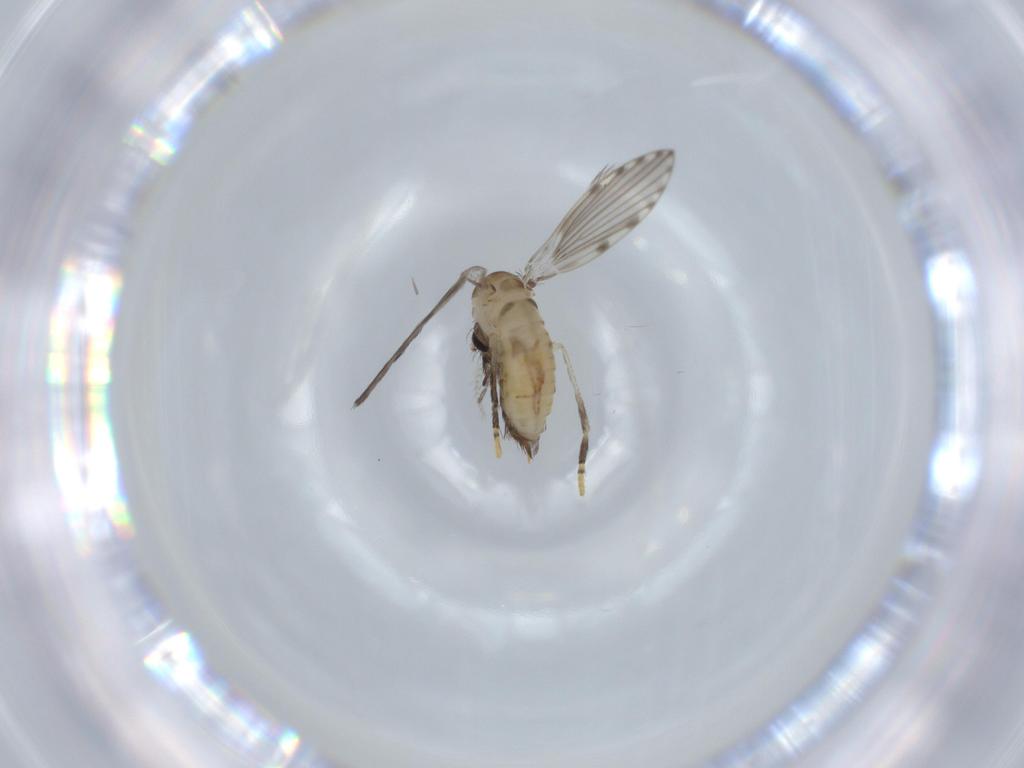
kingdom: Animalia
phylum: Arthropoda
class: Insecta
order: Diptera
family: Psychodidae
